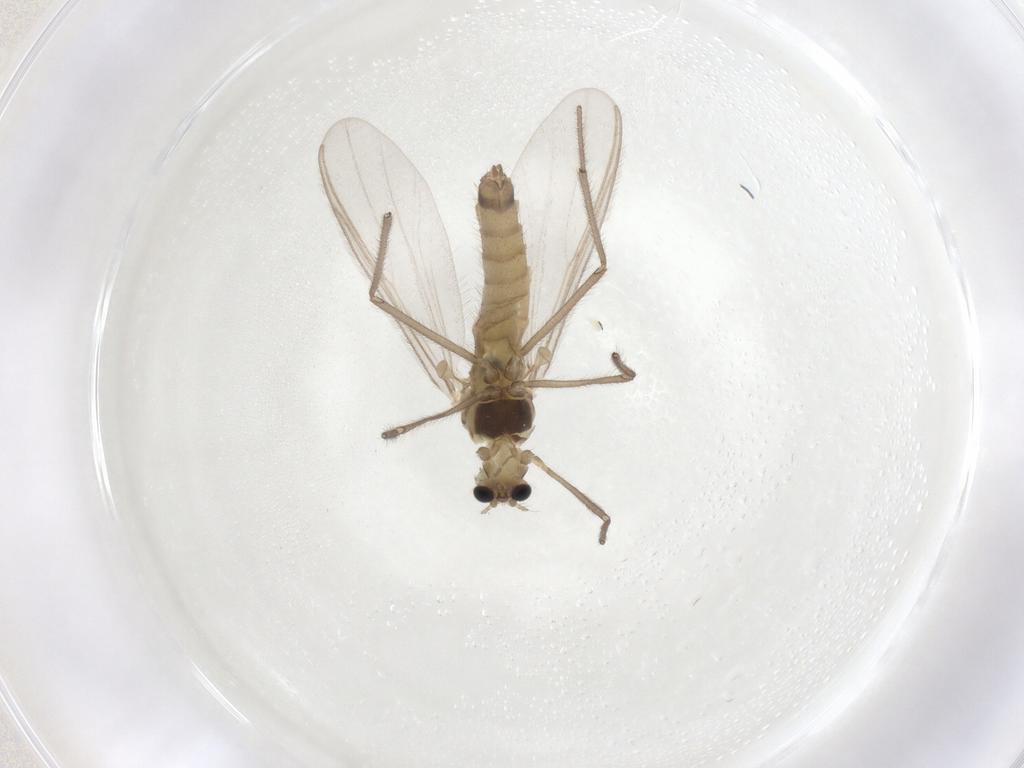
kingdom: Animalia
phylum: Arthropoda
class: Insecta
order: Diptera
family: Chironomidae
